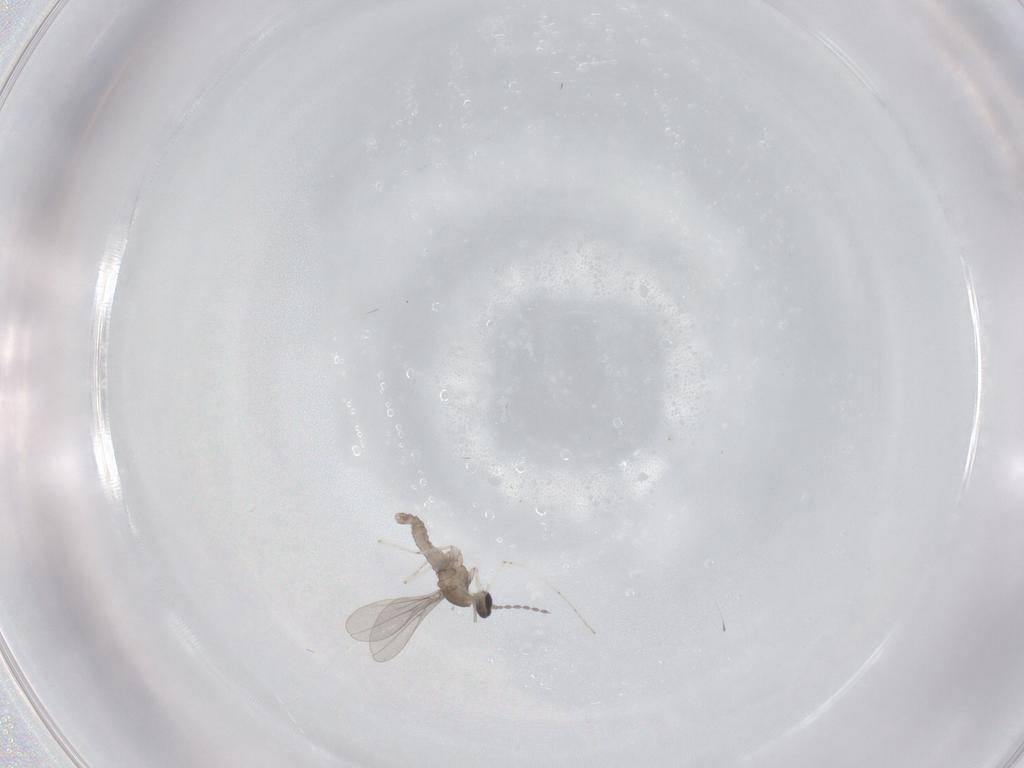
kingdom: Animalia
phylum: Arthropoda
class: Insecta
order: Diptera
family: Cecidomyiidae
